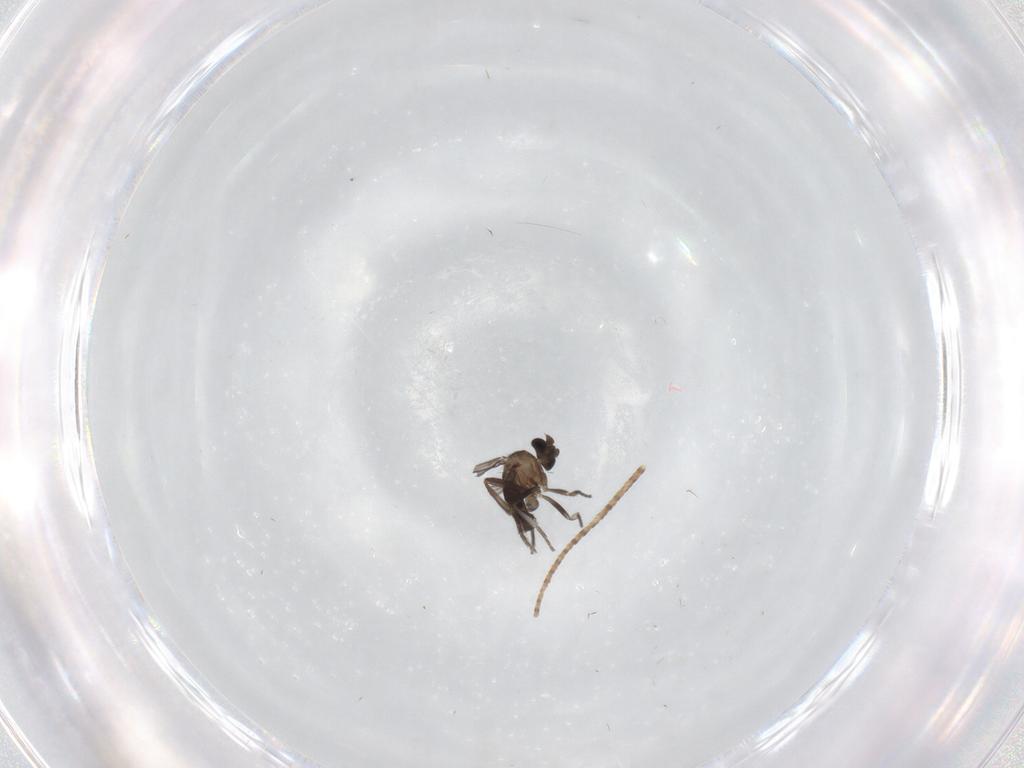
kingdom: Animalia
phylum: Arthropoda
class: Insecta
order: Diptera
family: Phoridae
